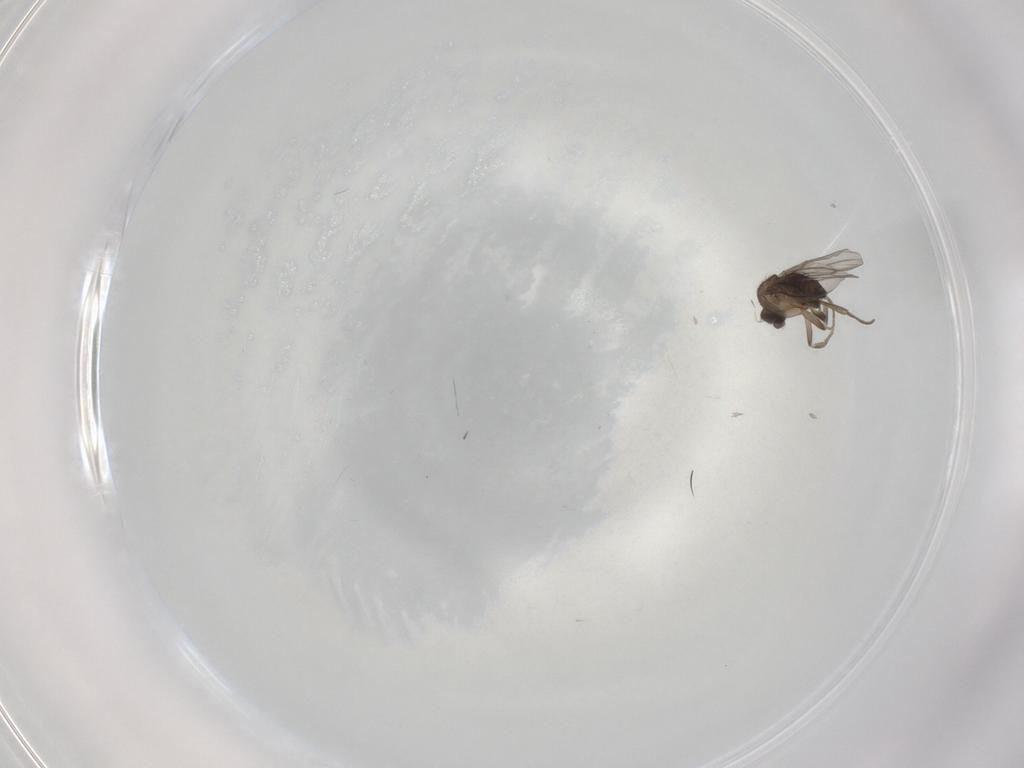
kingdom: Animalia
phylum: Arthropoda
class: Insecta
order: Diptera
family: Phoridae
